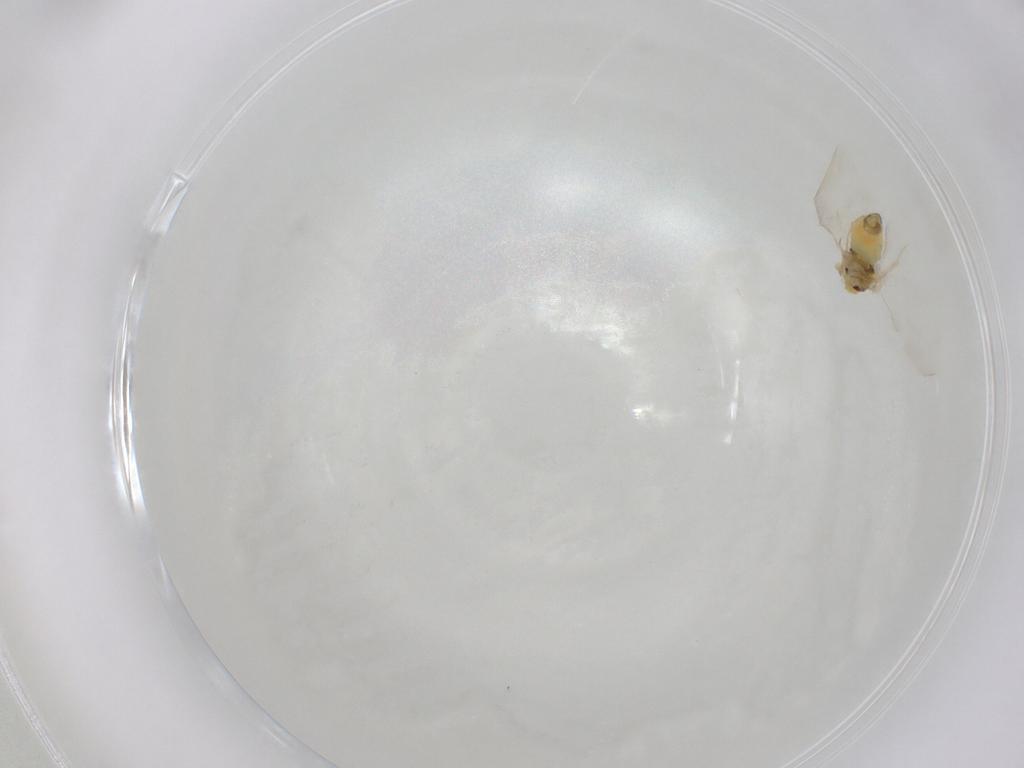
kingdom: Animalia
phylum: Arthropoda
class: Insecta
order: Hemiptera
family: Aleyrodidae
